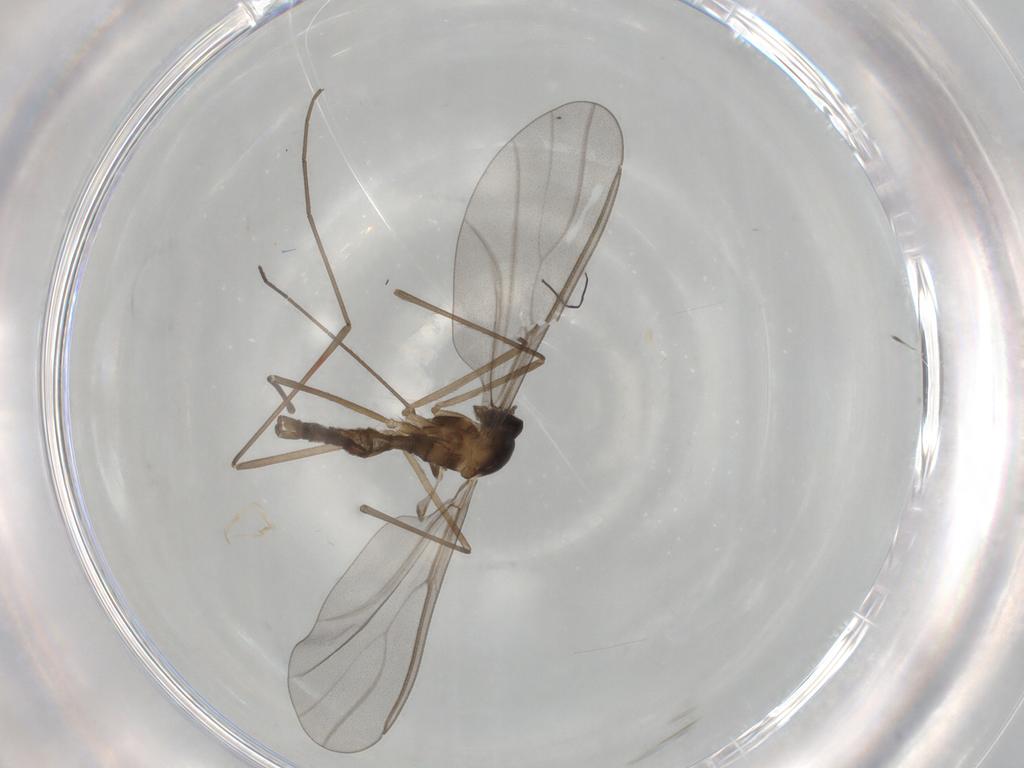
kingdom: Animalia
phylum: Arthropoda
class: Insecta
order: Diptera
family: Cecidomyiidae
